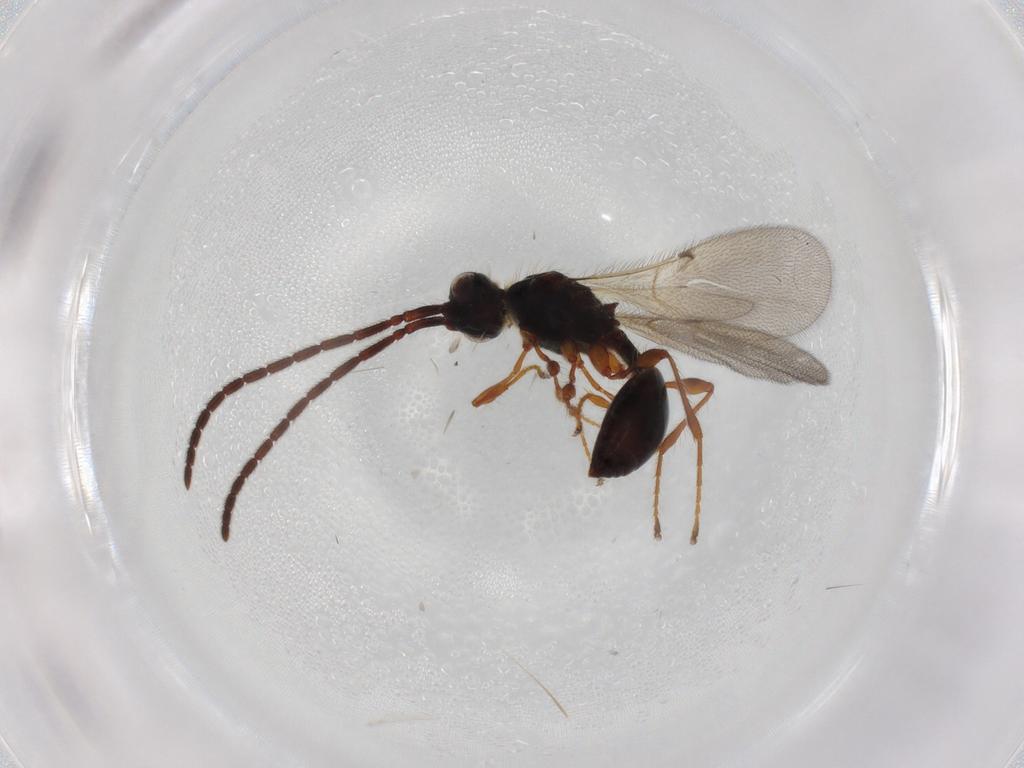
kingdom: Animalia
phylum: Arthropoda
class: Insecta
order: Hymenoptera
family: Formicidae
